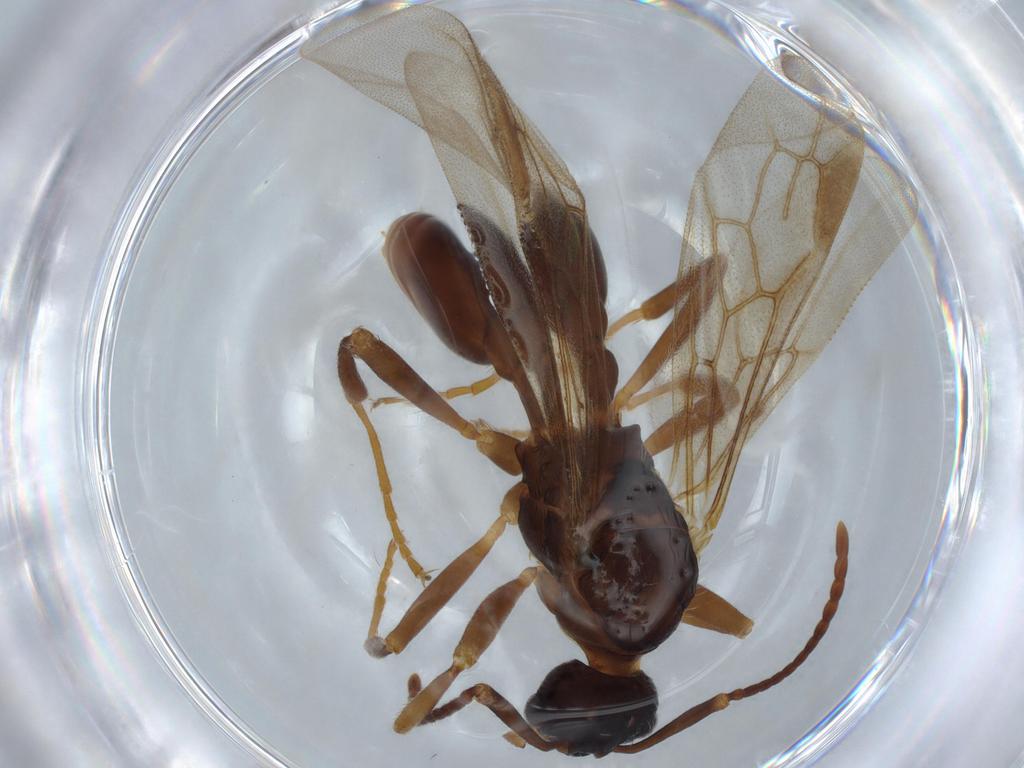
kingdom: Animalia
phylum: Arthropoda
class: Insecta
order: Hymenoptera
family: Formicidae
